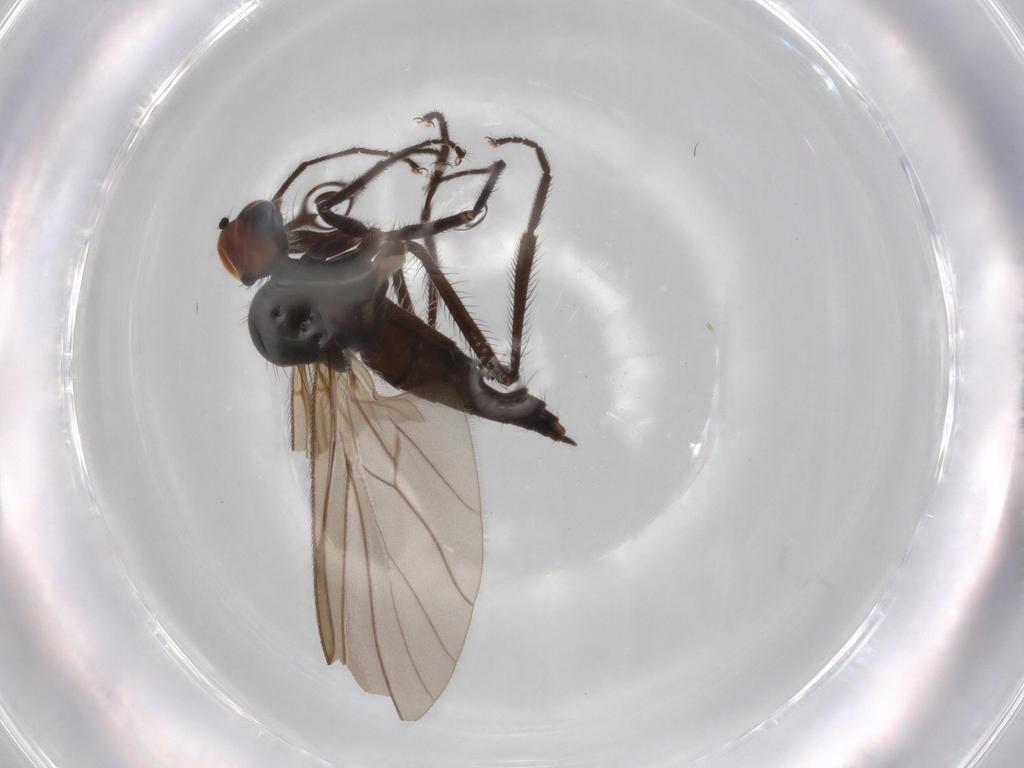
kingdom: Animalia
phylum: Arthropoda
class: Insecta
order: Diptera
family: Hybotidae
